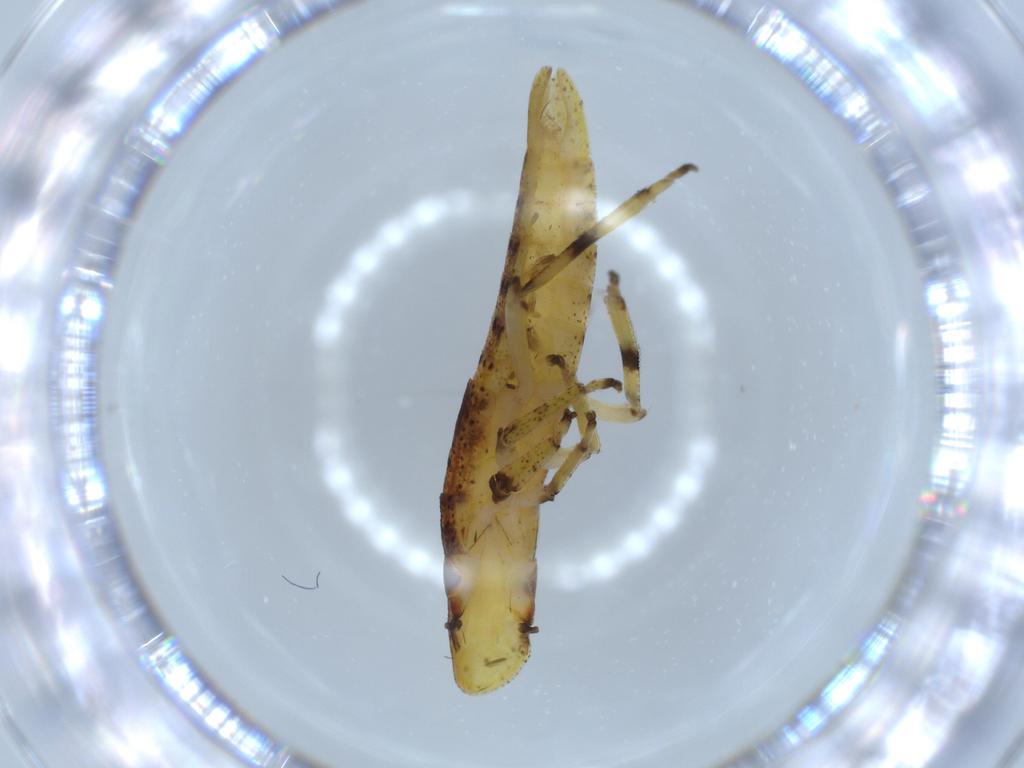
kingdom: Animalia
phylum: Arthropoda
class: Insecta
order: Hemiptera
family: Cicadellidae
